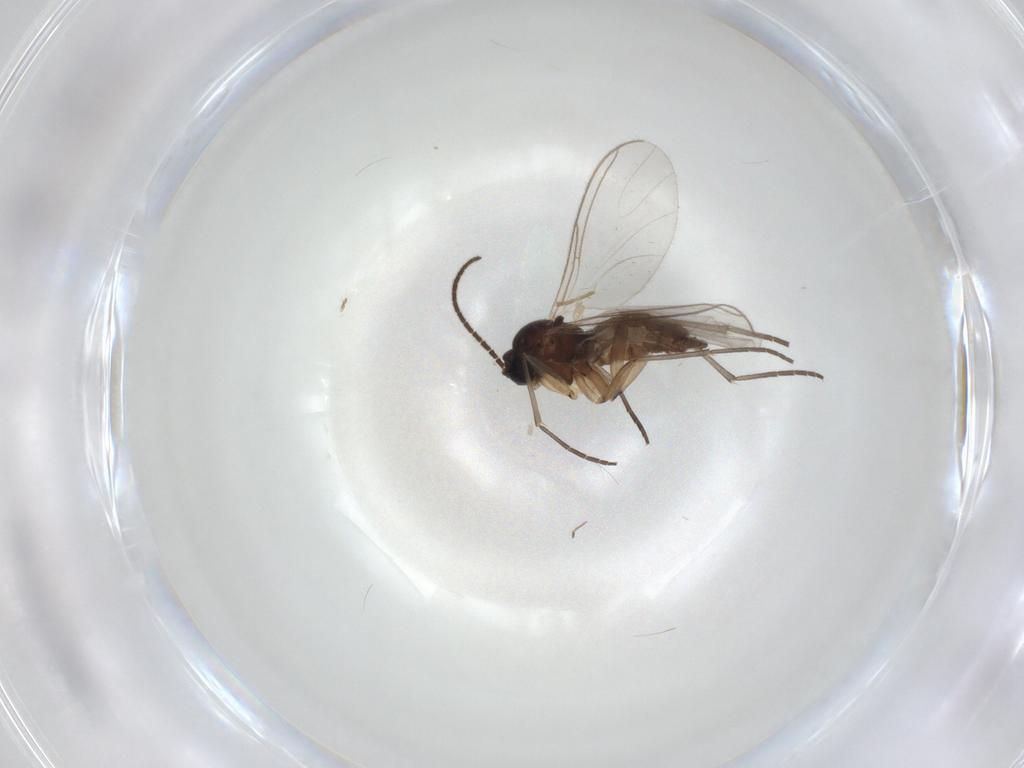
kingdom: Animalia
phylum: Arthropoda
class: Insecta
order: Diptera
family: Sciaridae
